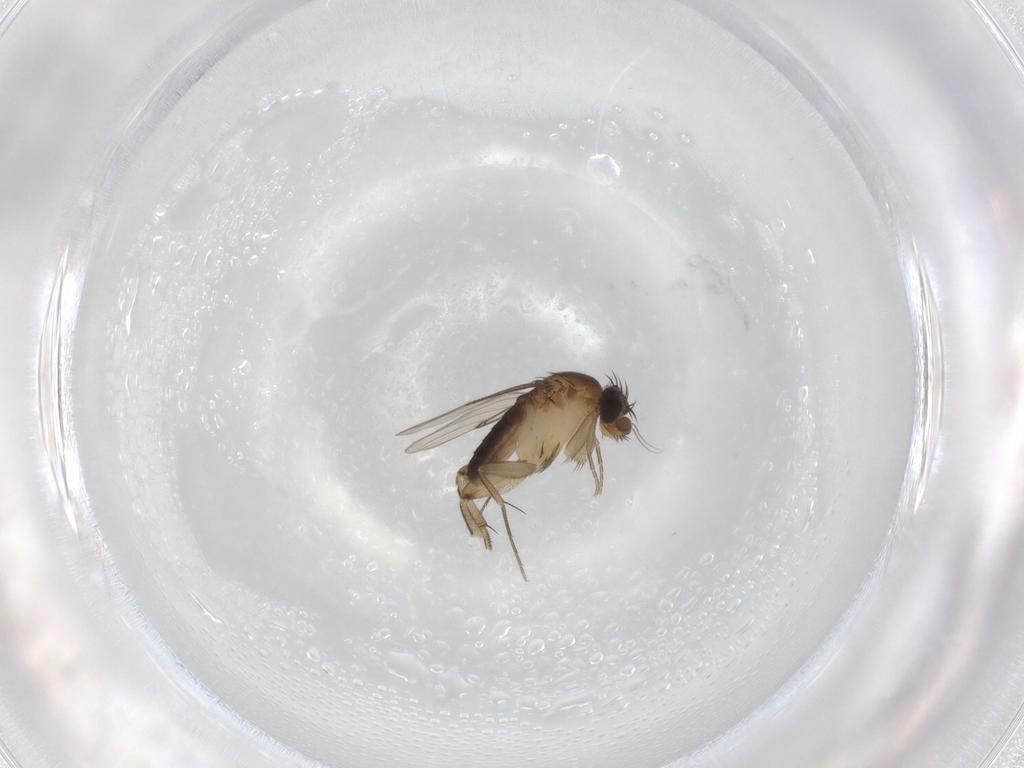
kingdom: Animalia
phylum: Arthropoda
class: Insecta
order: Diptera
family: Phoridae
